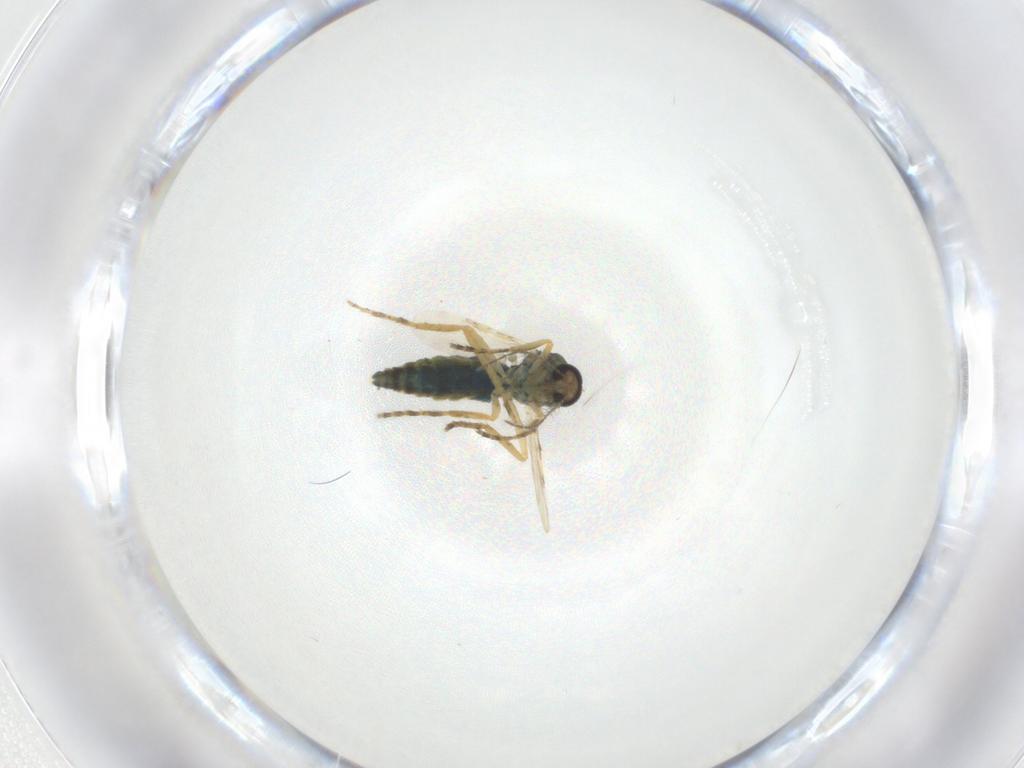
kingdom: Animalia
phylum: Arthropoda
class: Insecta
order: Diptera
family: Ceratopogonidae
